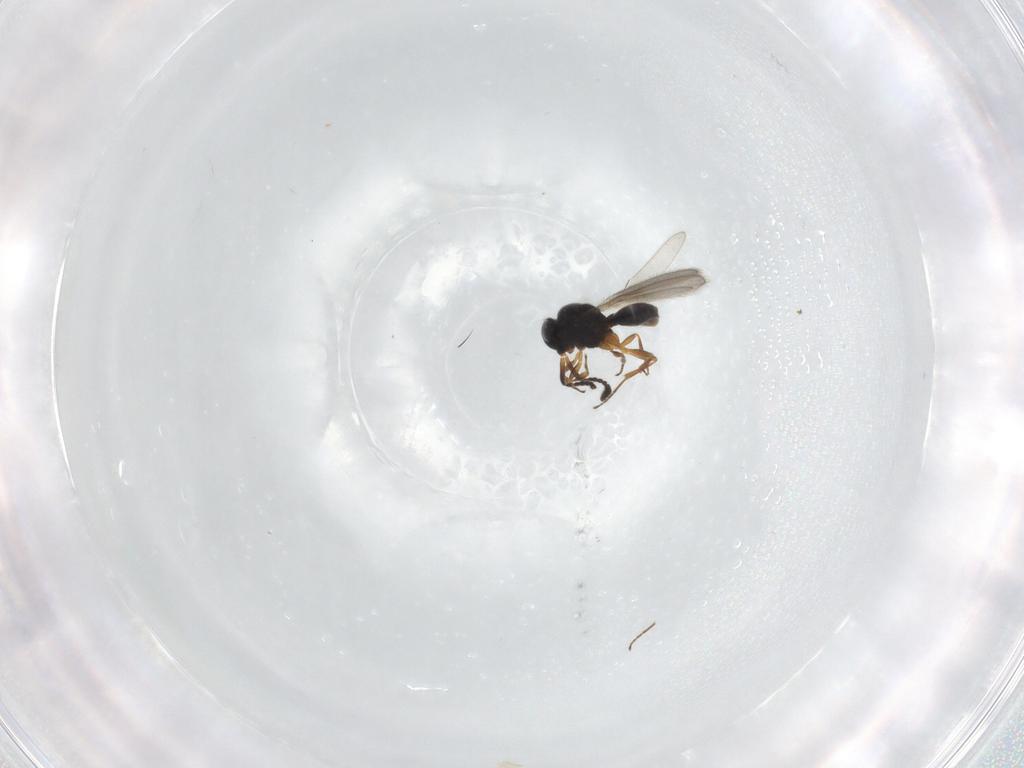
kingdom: Animalia
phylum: Arthropoda
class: Insecta
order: Hymenoptera
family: Scelionidae
